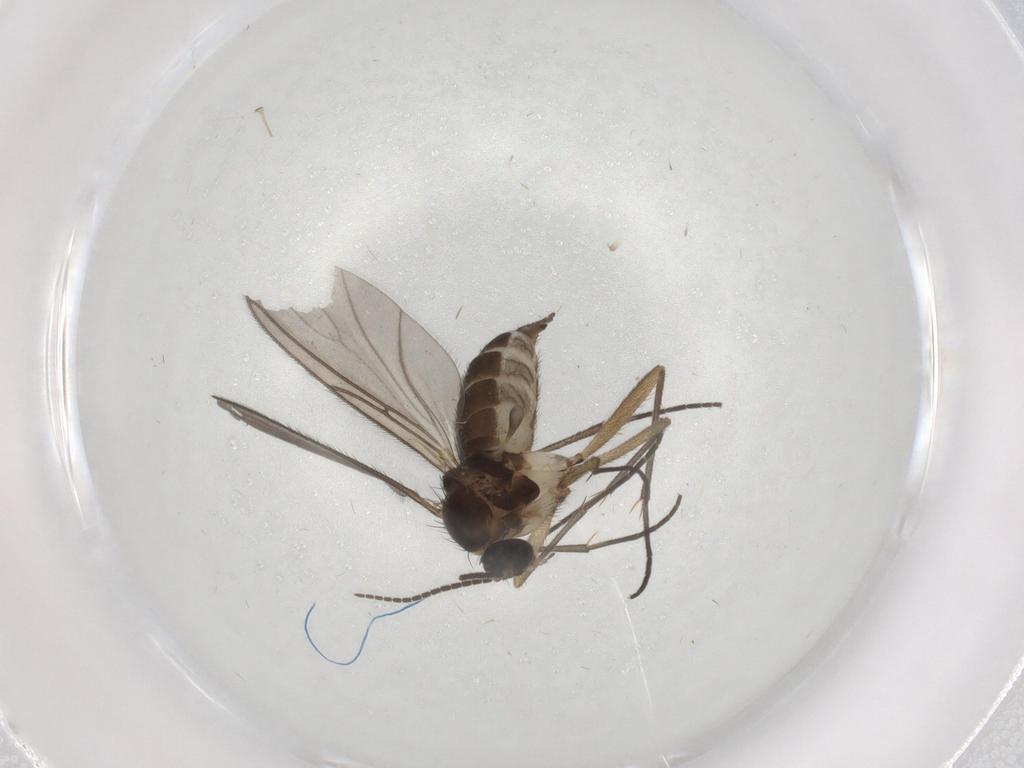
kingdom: Animalia
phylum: Arthropoda
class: Insecta
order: Diptera
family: Sciaridae
